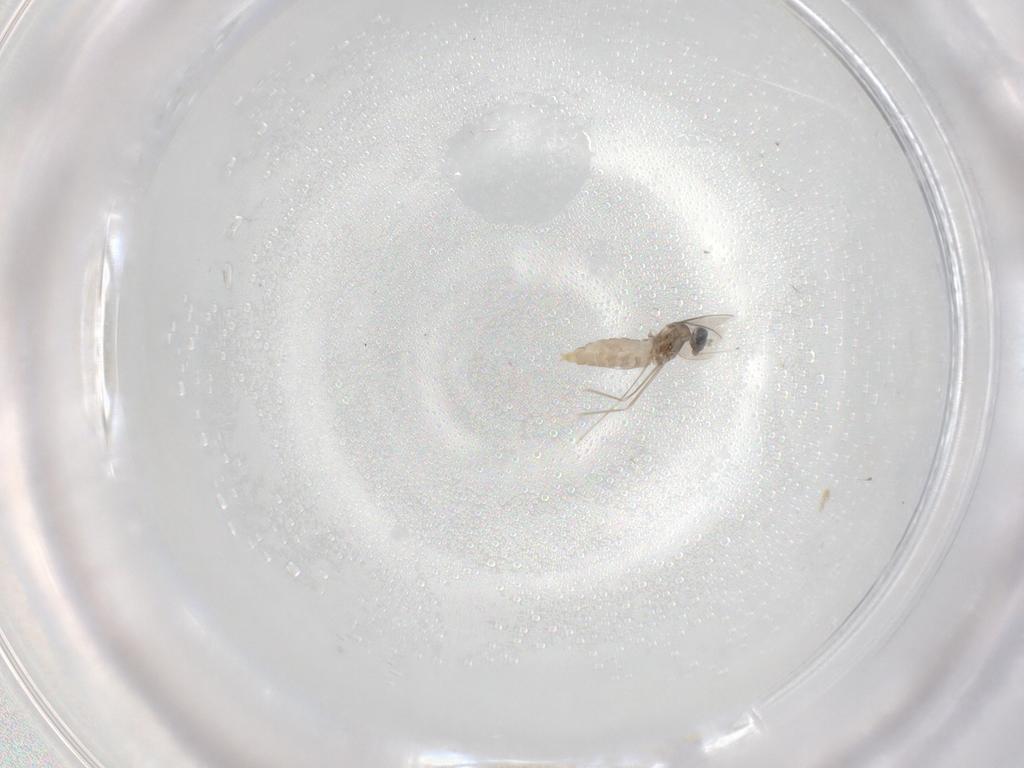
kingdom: Animalia
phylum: Arthropoda
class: Insecta
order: Diptera
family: Cecidomyiidae
